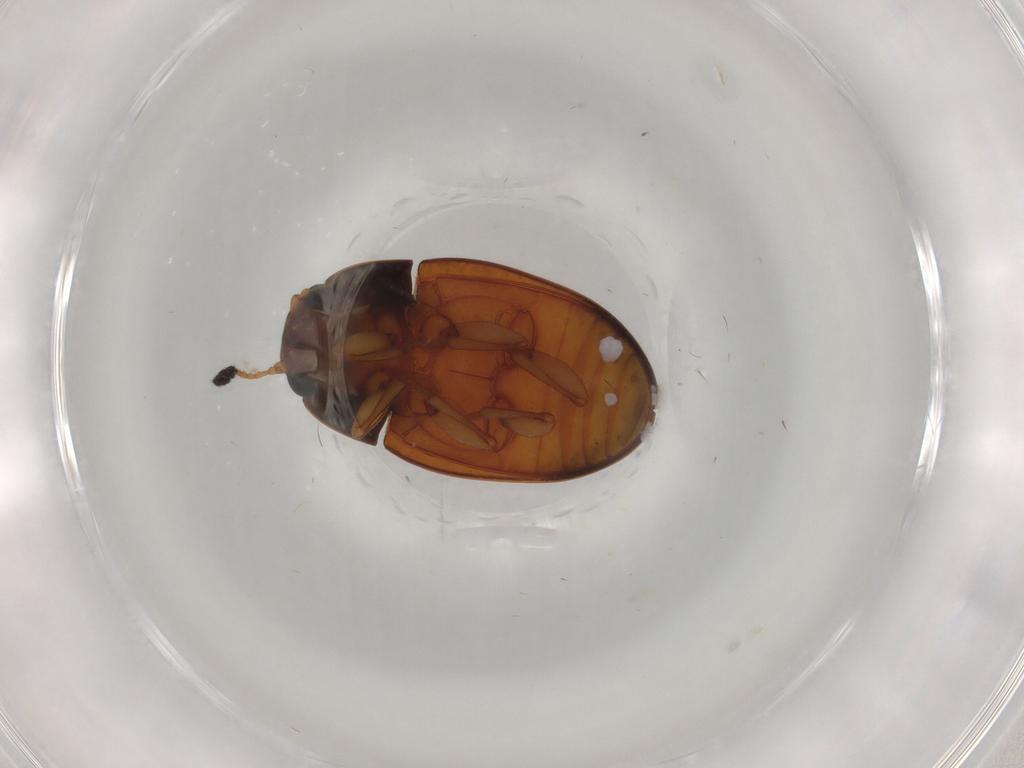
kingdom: Animalia
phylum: Arthropoda
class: Insecta
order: Coleoptera
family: Erotylidae
